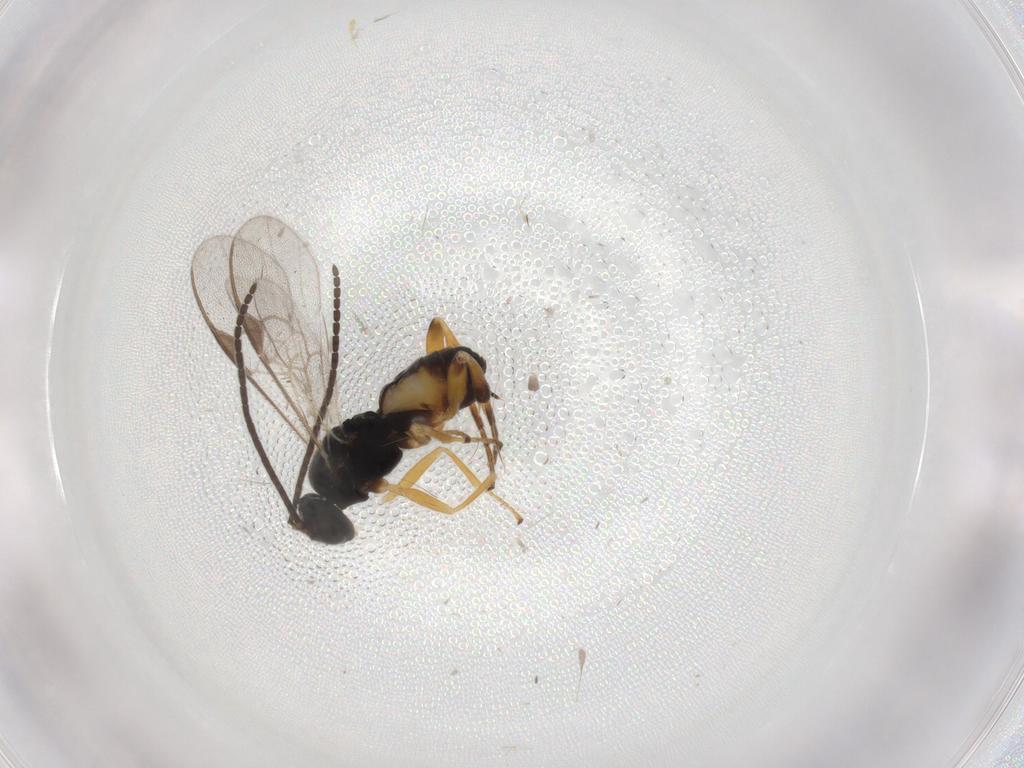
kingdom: Animalia
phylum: Arthropoda
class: Insecta
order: Hymenoptera
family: Braconidae
